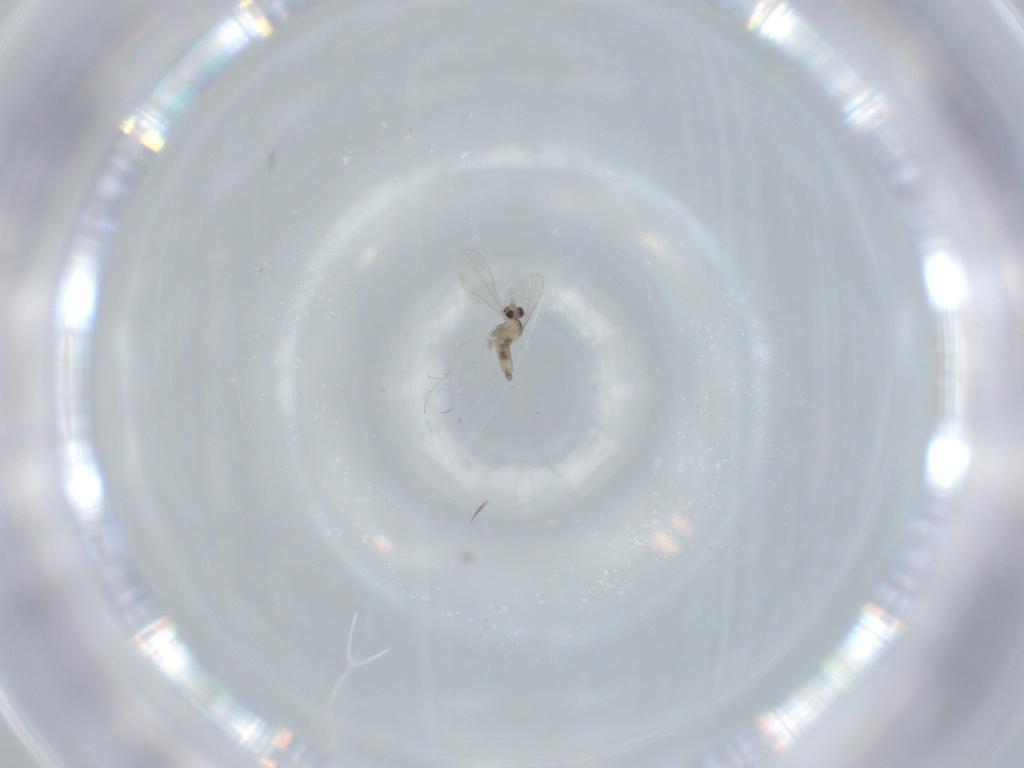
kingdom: Animalia
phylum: Arthropoda
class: Insecta
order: Diptera
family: Cecidomyiidae
